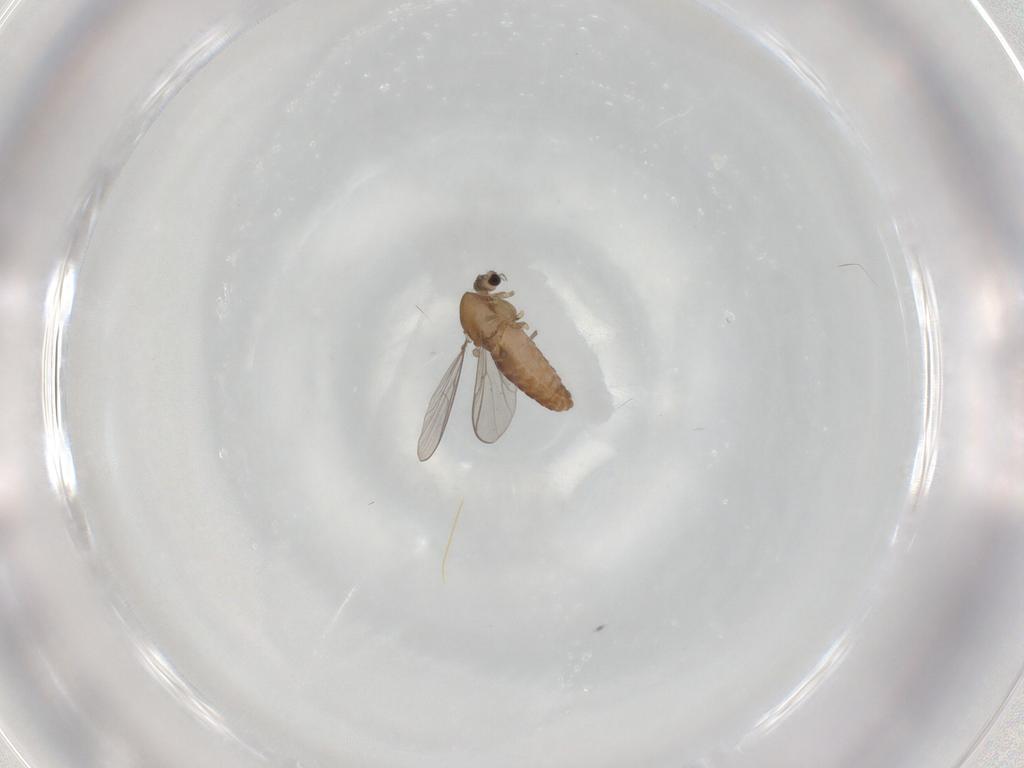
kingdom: Animalia
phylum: Arthropoda
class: Insecta
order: Diptera
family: Chironomidae
